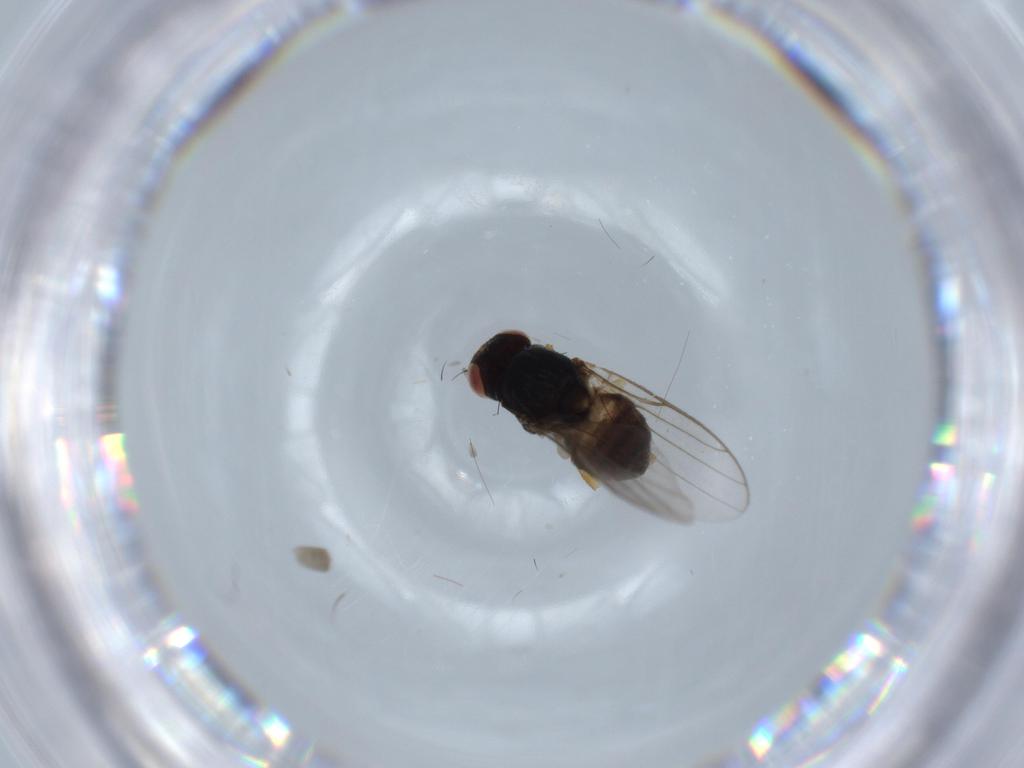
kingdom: Animalia
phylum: Arthropoda
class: Insecta
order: Diptera
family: Chloropidae
